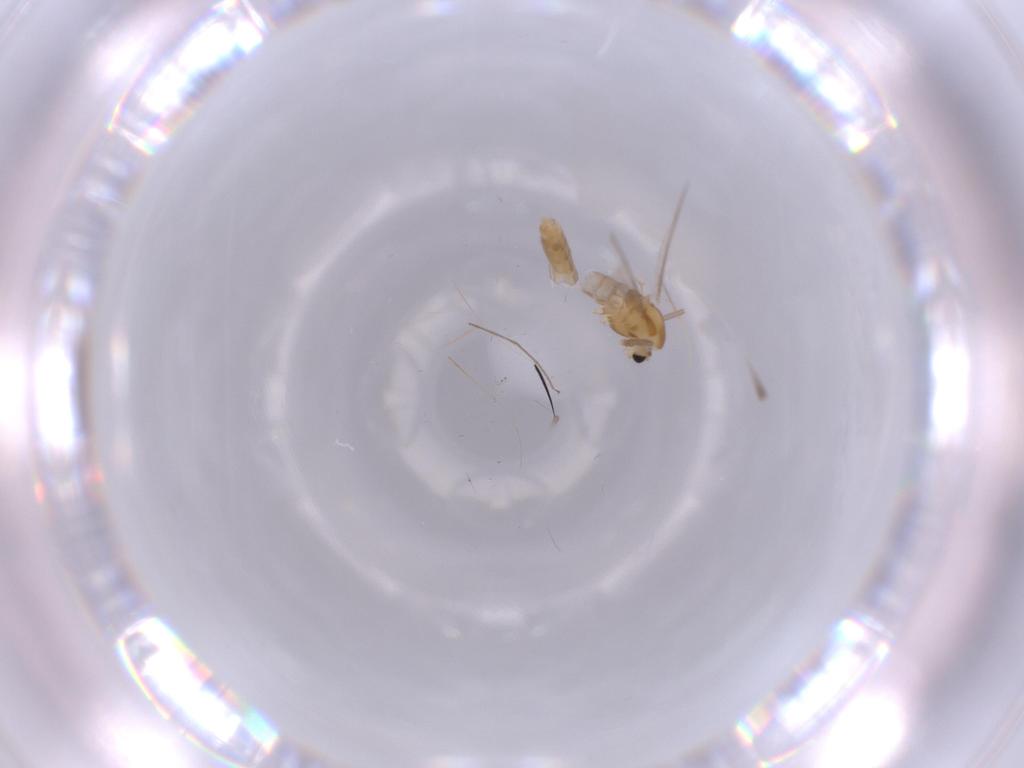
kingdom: Animalia
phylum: Arthropoda
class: Insecta
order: Diptera
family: Chironomidae
